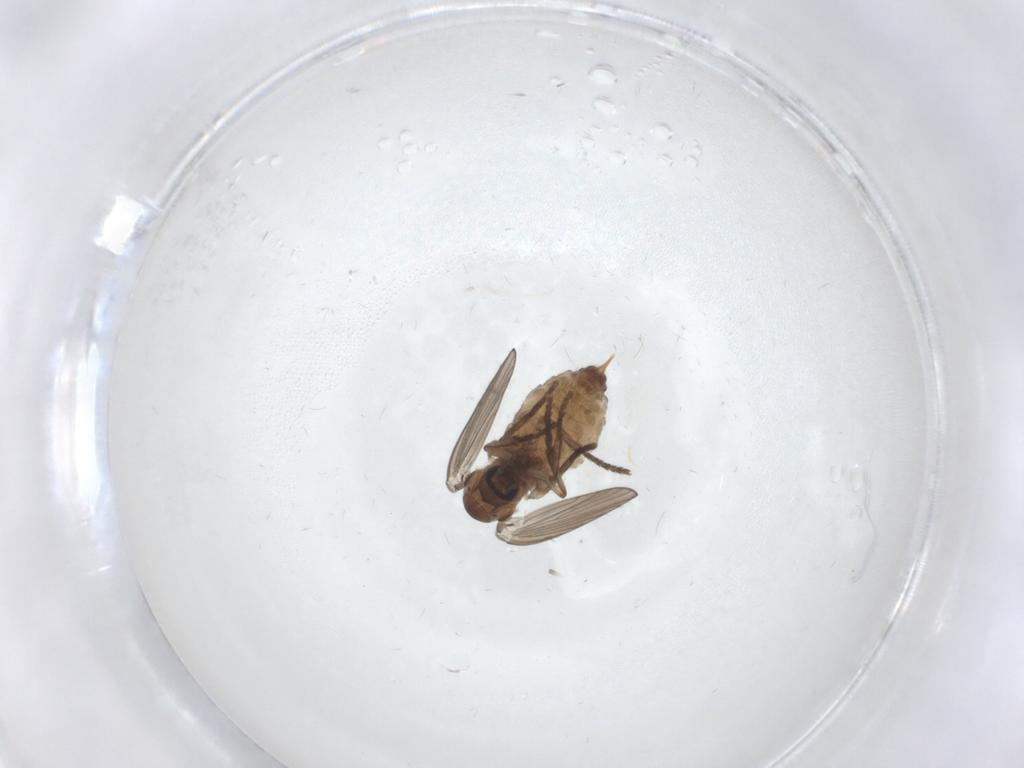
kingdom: Animalia
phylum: Arthropoda
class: Insecta
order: Diptera
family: Psychodidae
